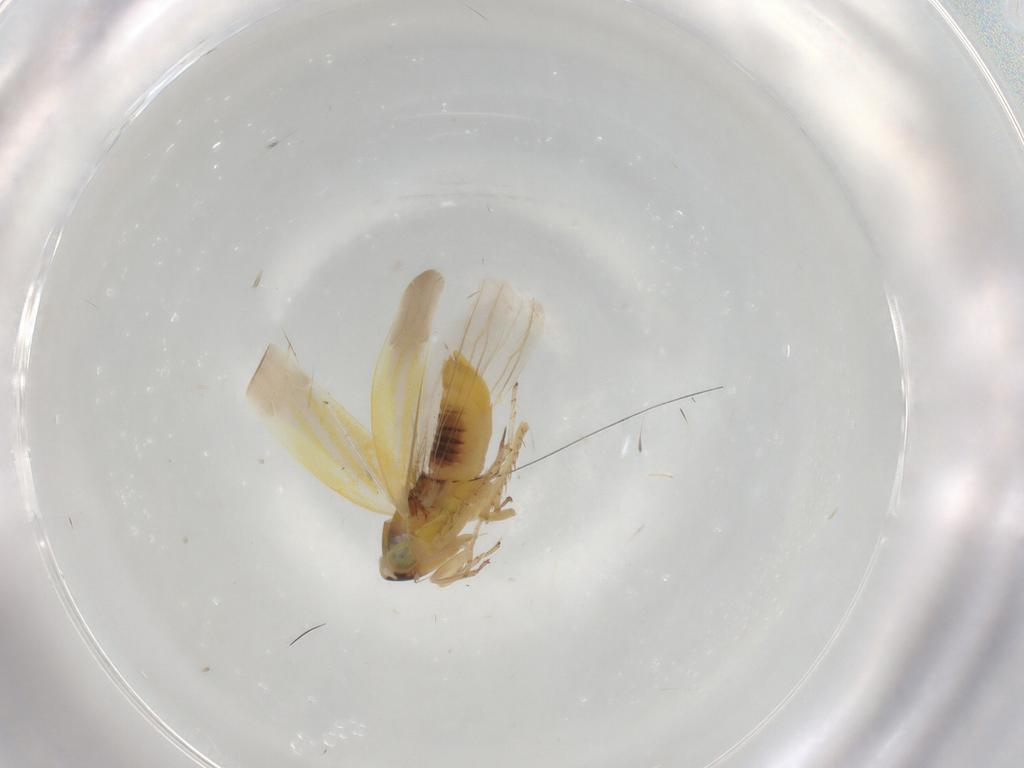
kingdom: Animalia
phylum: Arthropoda
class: Insecta
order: Hemiptera
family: Cicadellidae
